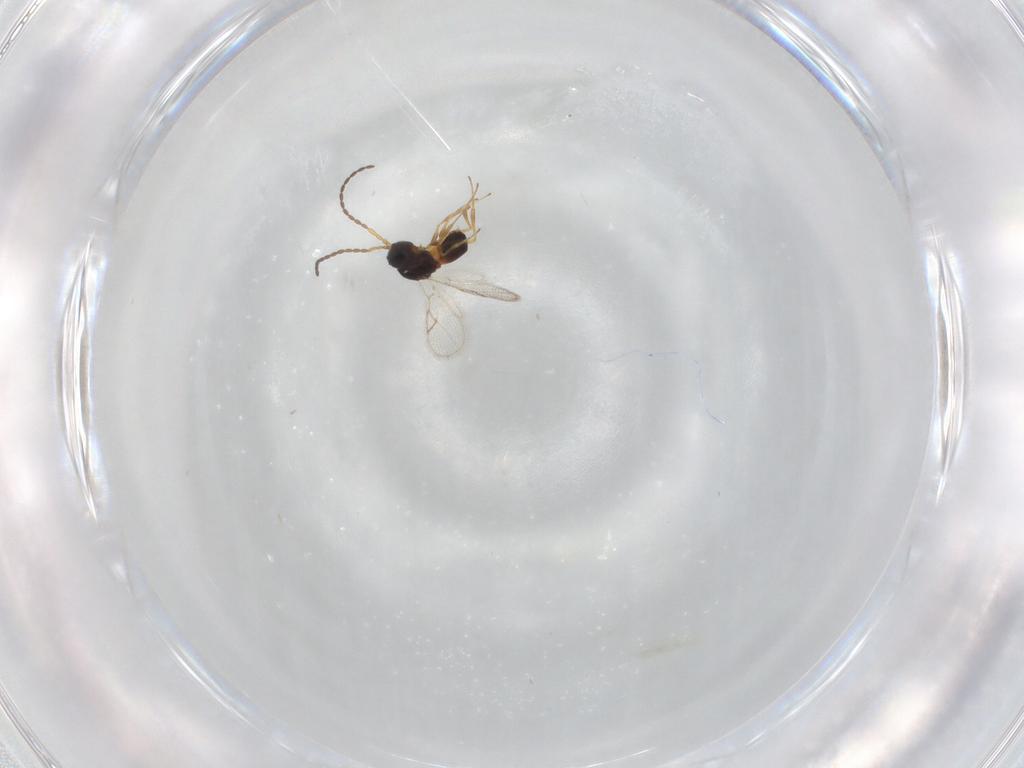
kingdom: Animalia
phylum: Arthropoda
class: Insecta
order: Hymenoptera
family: Figitidae
